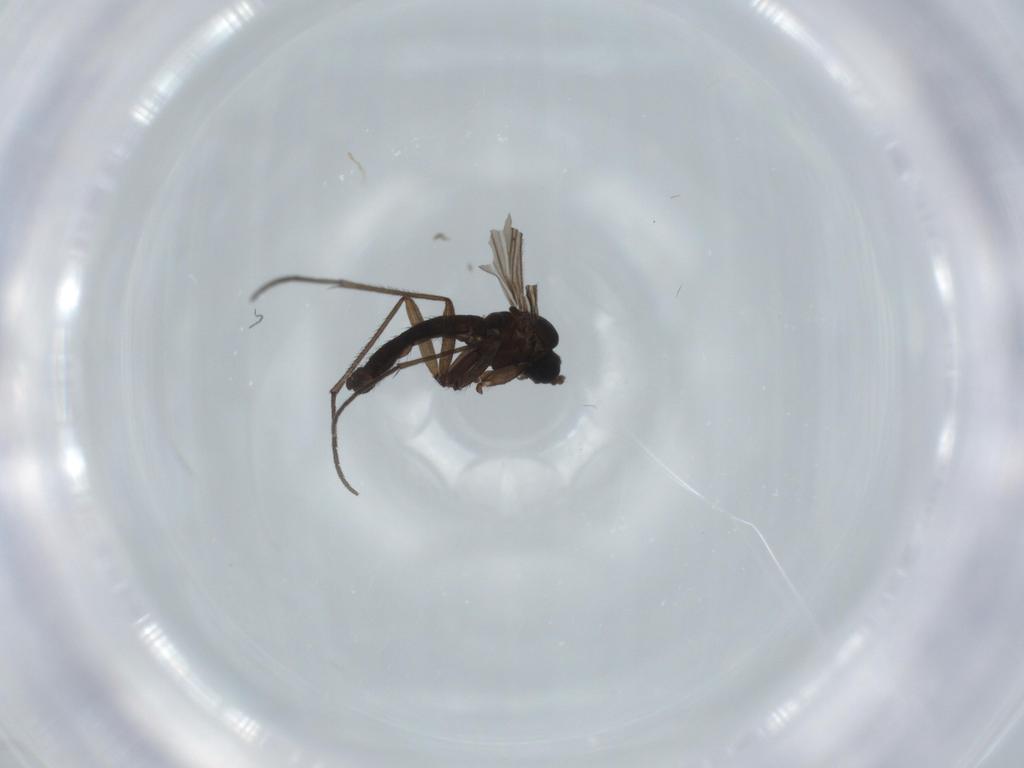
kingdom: Animalia
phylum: Arthropoda
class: Insecta
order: Diptera
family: Sciaridae
